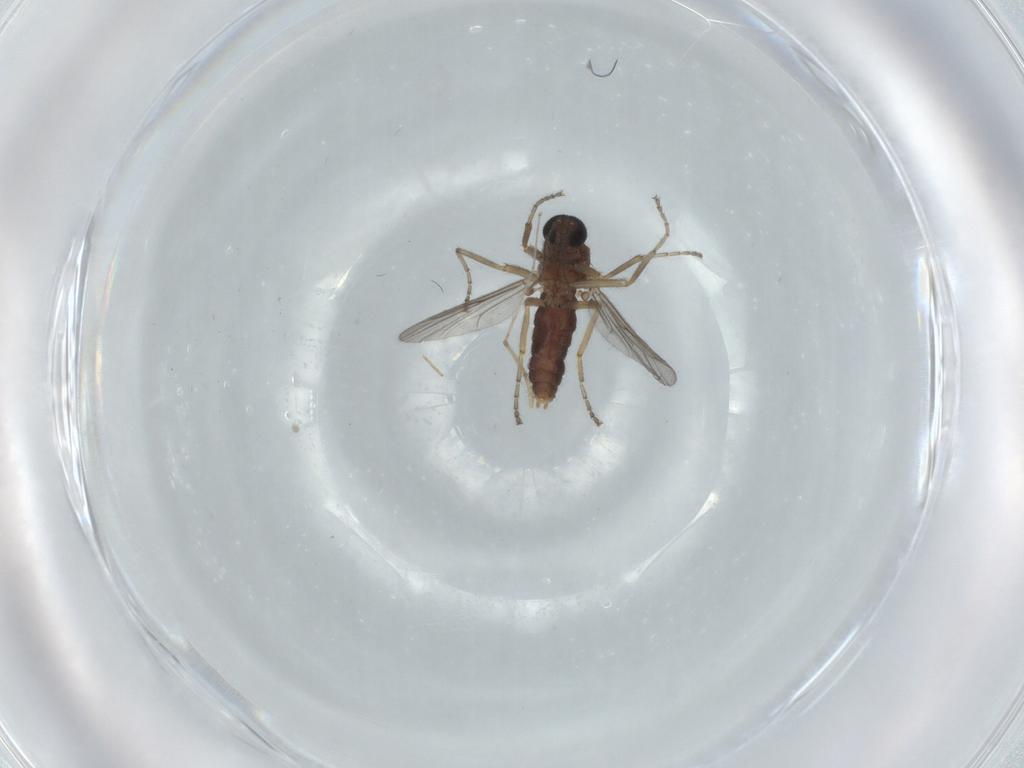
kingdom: Animalia
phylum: Arthropoda
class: Insecta
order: Diptera
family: Ceratopogonidae
